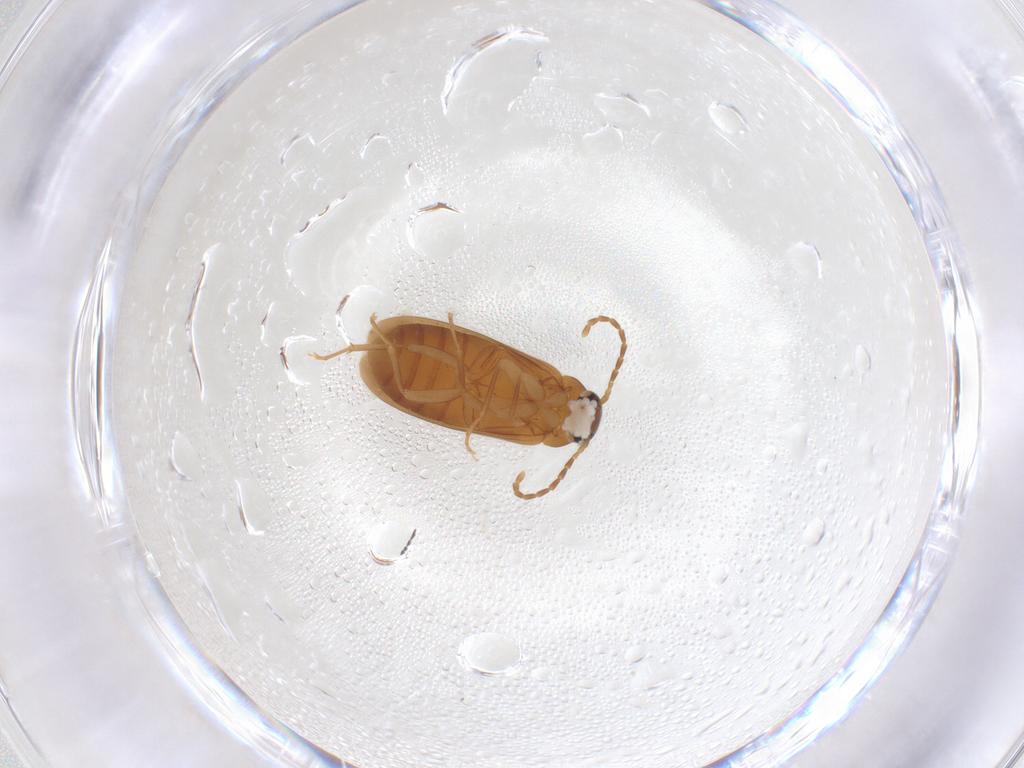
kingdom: Animalia
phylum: Arthropoda
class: Insecta
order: Coleoptera
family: Scraptiidae
